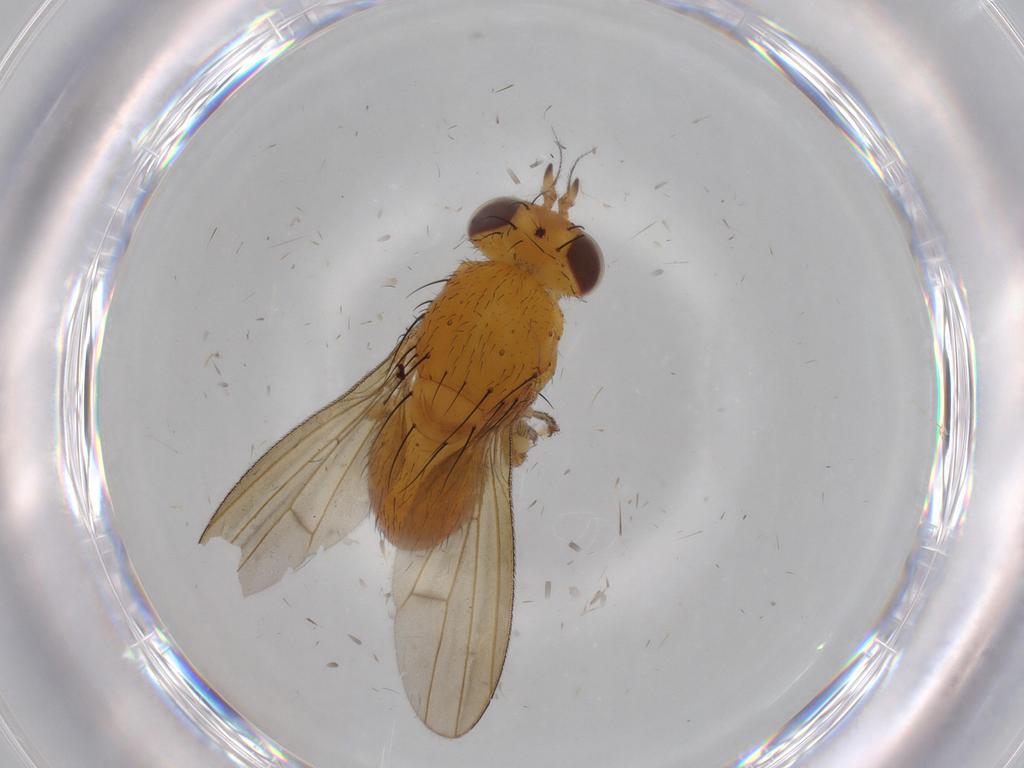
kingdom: Animalia
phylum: Arthropoda
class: Insecta
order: Diptera
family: Lauxaniidae
